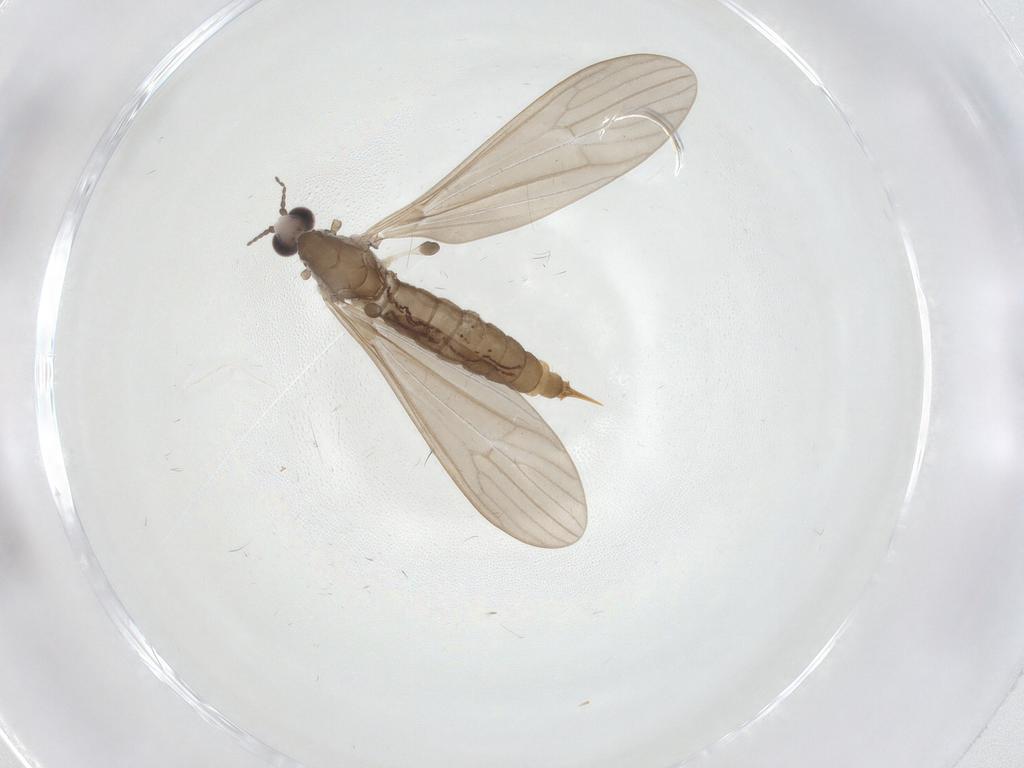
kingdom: Animalia
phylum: Arthropoda
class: Insecta
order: Diptera
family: Limoniidae
